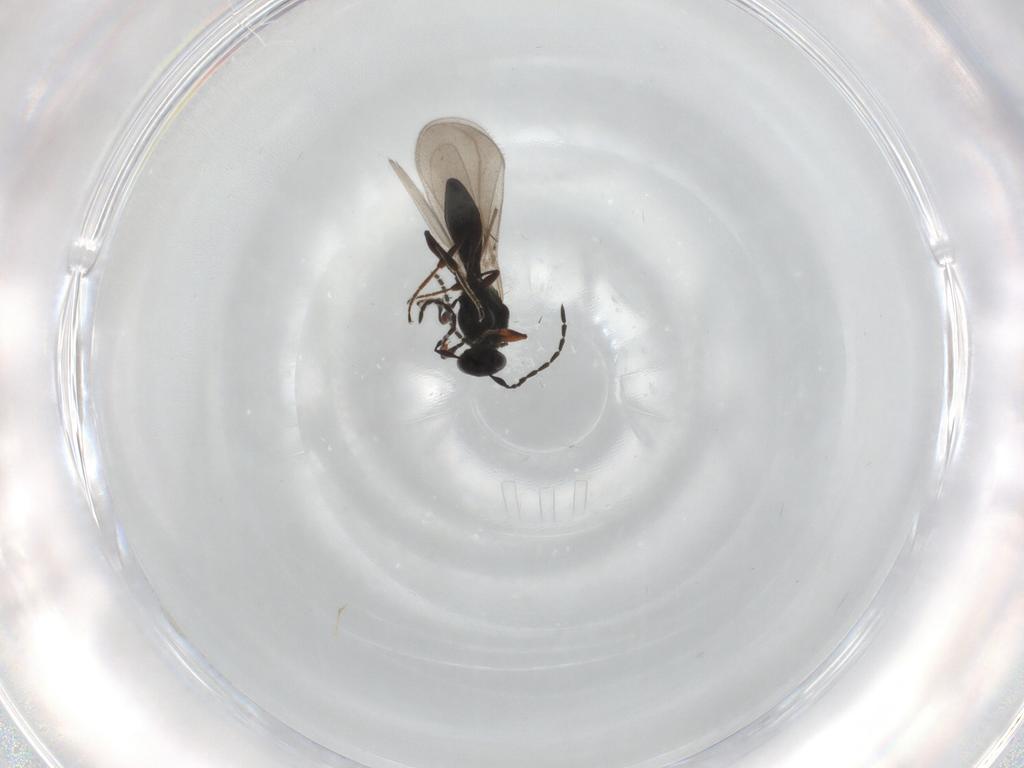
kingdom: Animalia
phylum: Arthropoda
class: Insecta
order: Hymenoptera
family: Platygastridae
